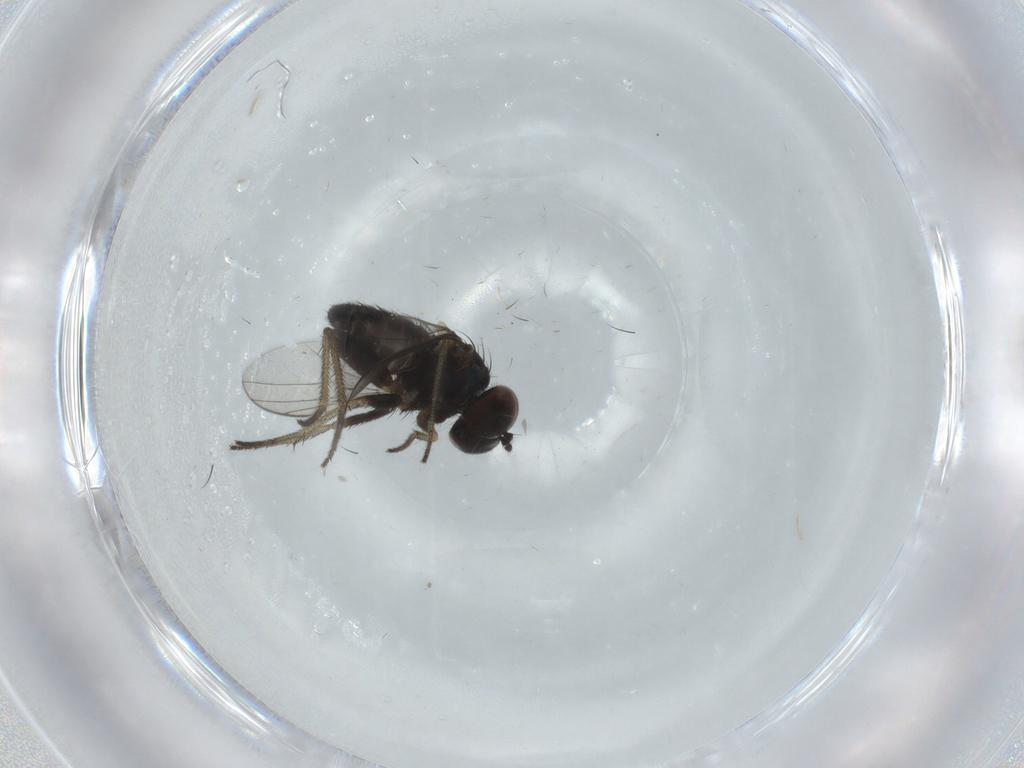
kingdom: Animalia
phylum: Arthropoda
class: Insecta
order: Diptera
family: Dolichopodidae
